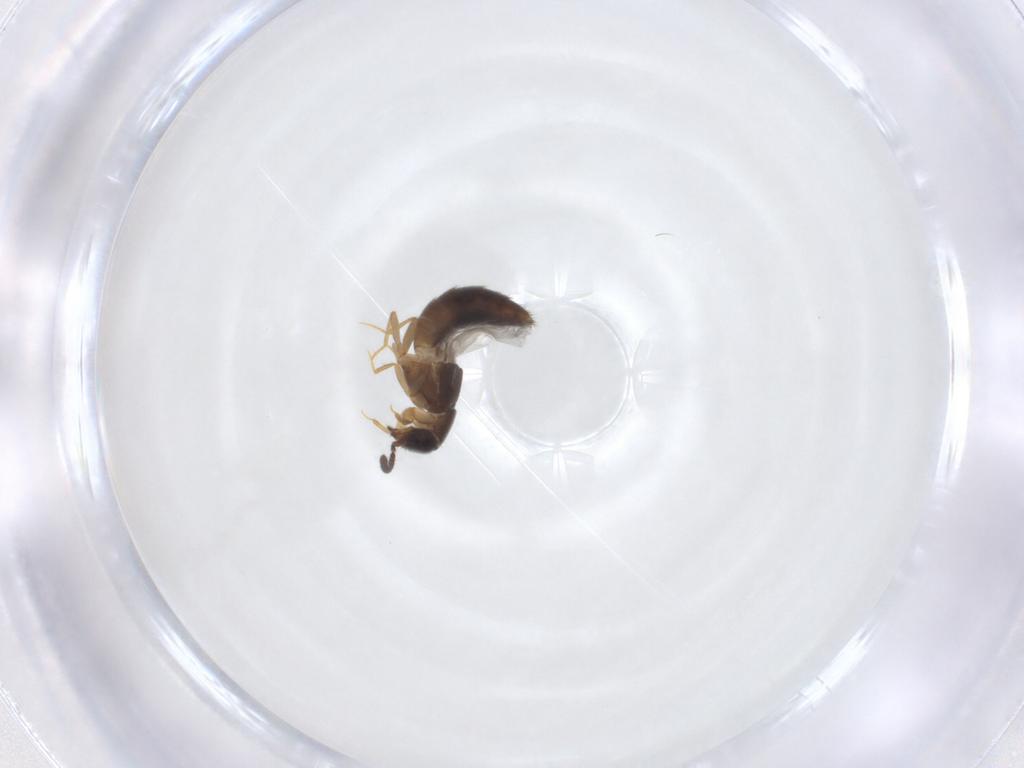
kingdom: Animalia
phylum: Arthropoda
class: Insecta
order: Coleoptera
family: Staphylinidae
